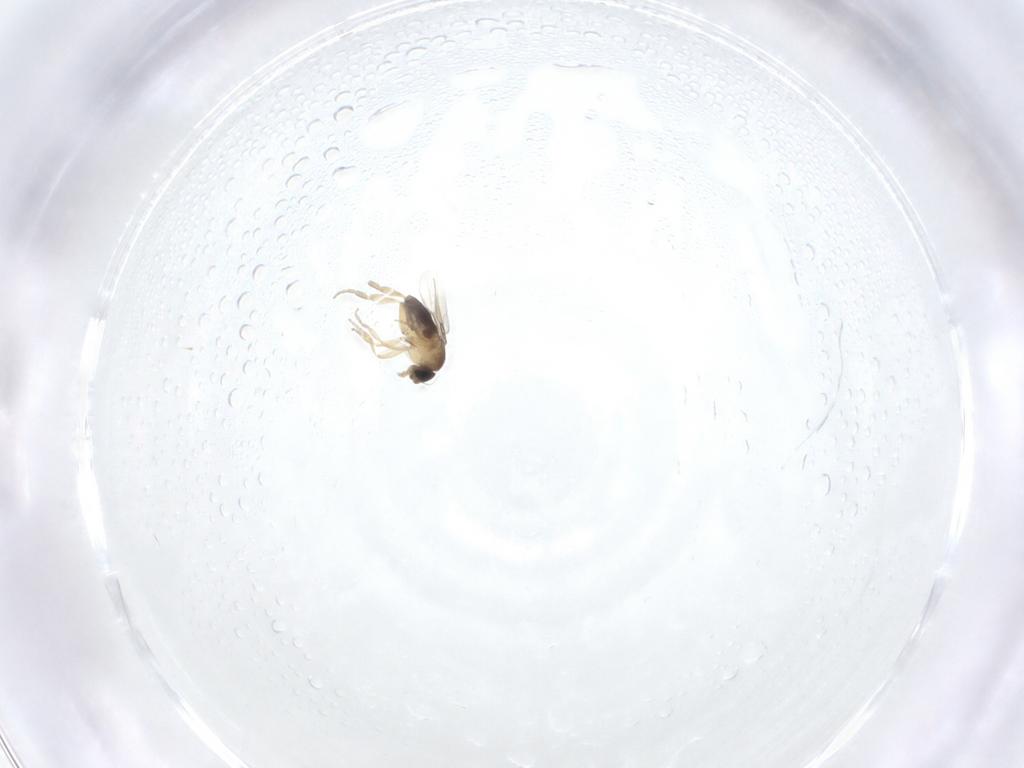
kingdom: Animalia
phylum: Arthropoda
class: Insecta
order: Diptera
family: Phoridae
